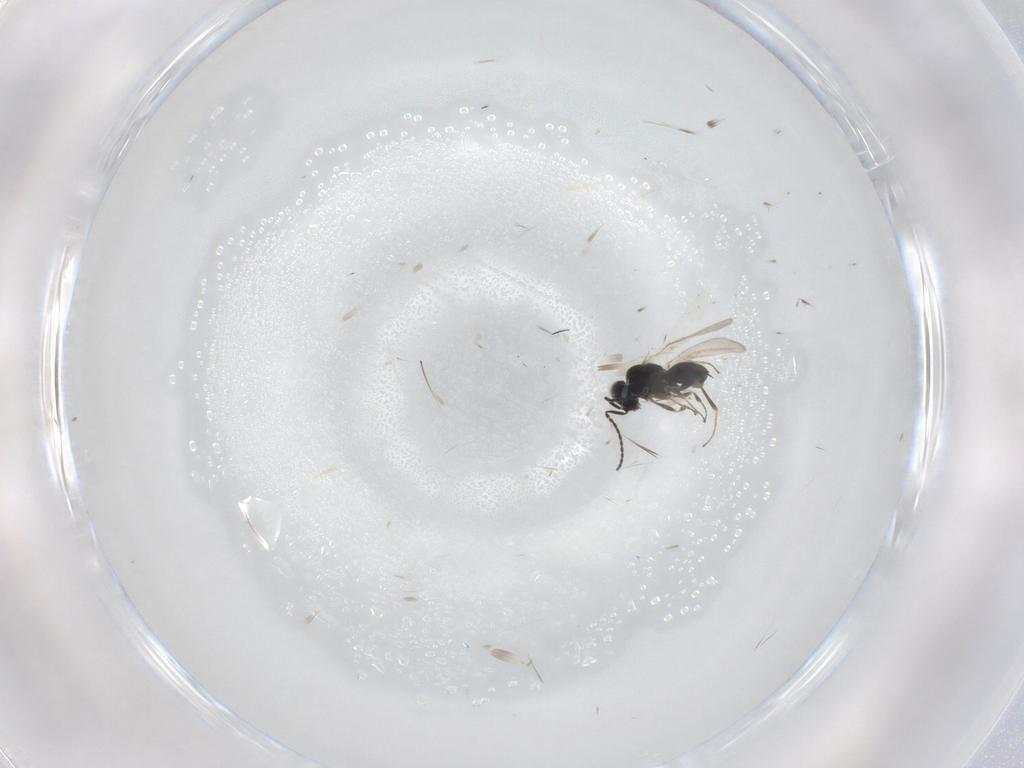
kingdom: Animalia
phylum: Arthropoda
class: Insecta
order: Hymenoptera
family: Scelionidae
